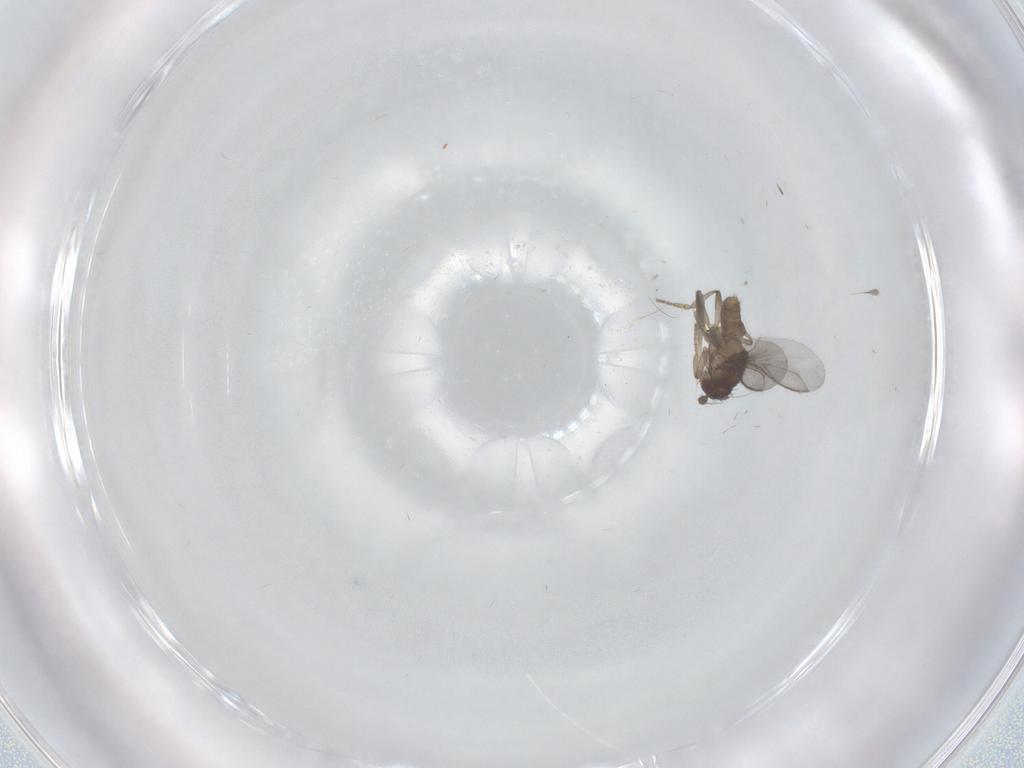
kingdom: Animalia
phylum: Arthropoda
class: Insecta
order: Diptera
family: Sphaeroceridae
